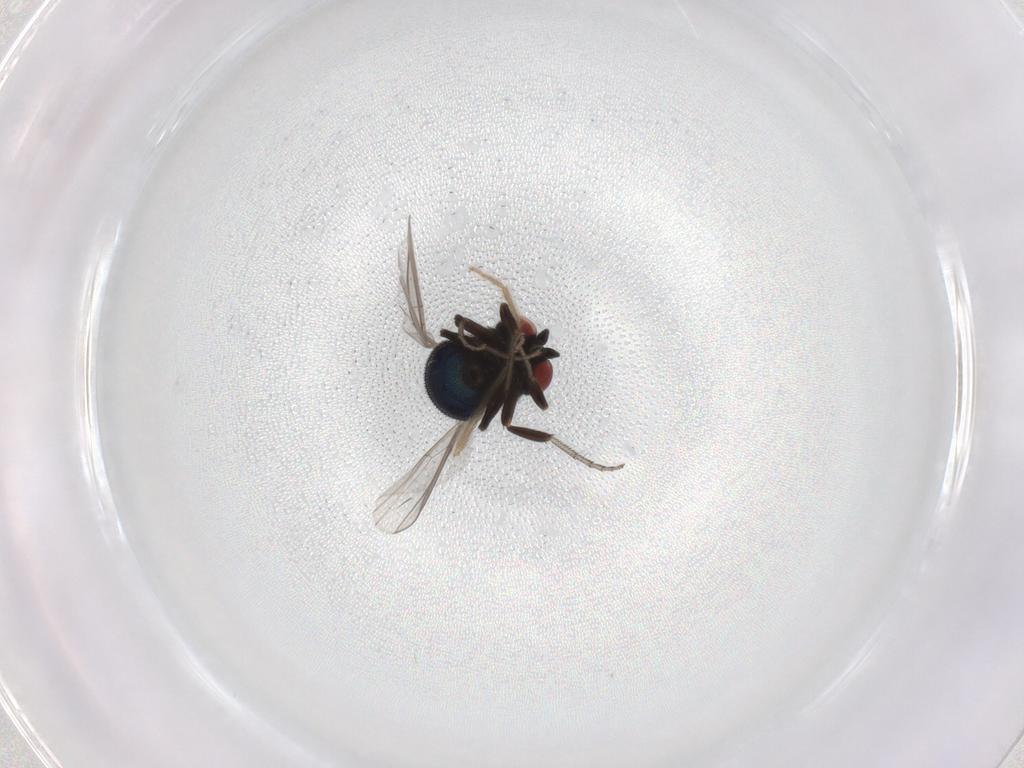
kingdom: Animalia
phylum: Arthropoda
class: Insecta
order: Diptera
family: Cryptochetidae
